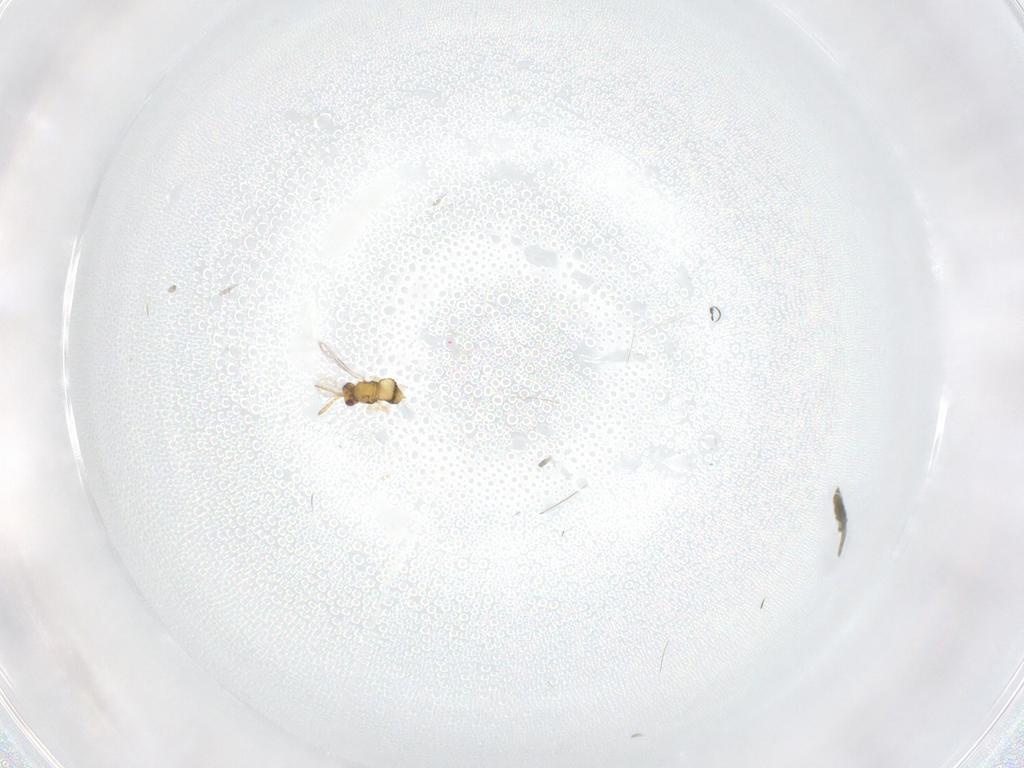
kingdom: Animalia
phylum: Arthropoda
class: Insecta
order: Hymenoptera
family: Aphelinidae
